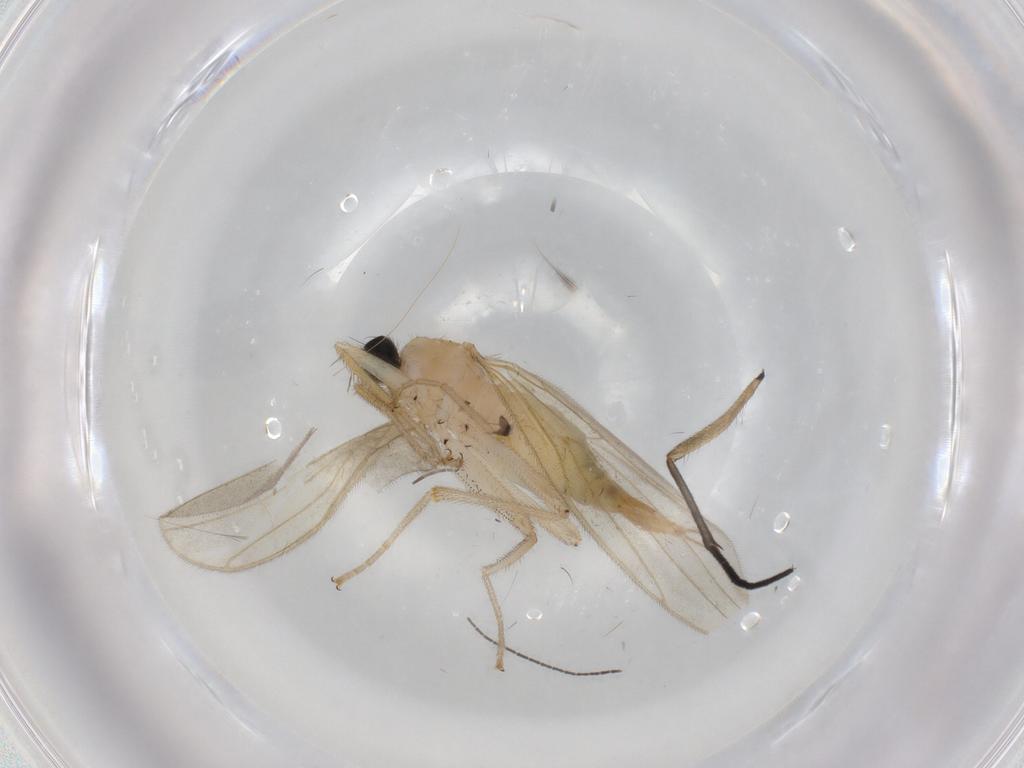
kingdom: Animalia
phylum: Arthropoda
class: Insecta
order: Diptera
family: Hybotidae
